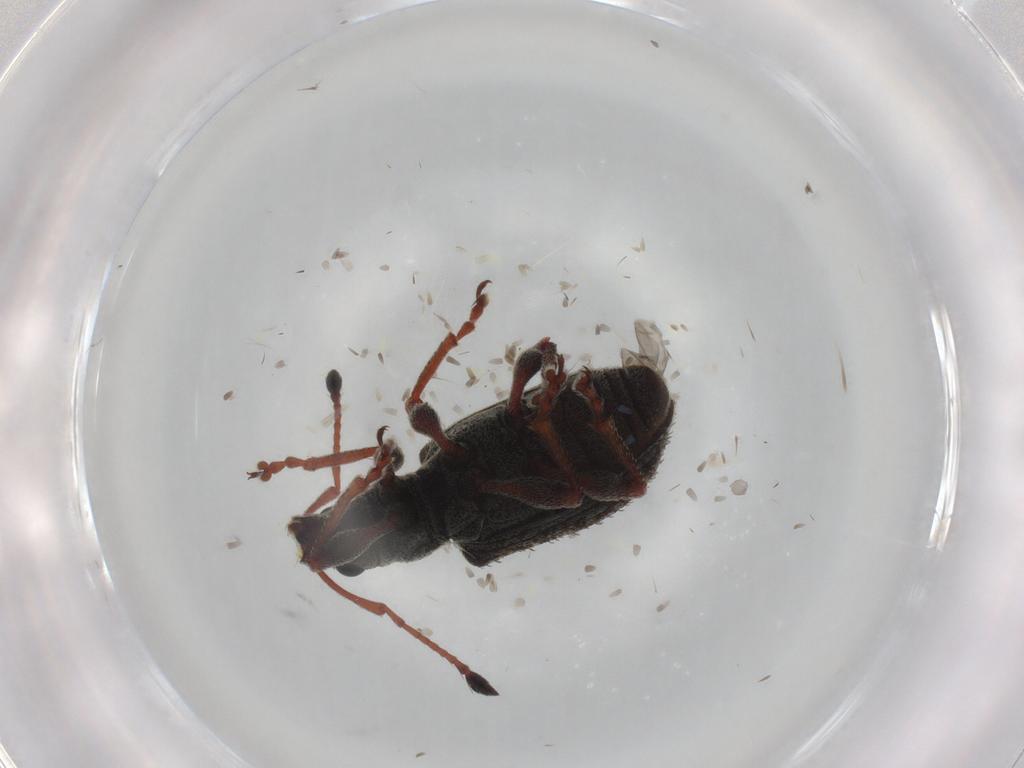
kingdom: Animalia
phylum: Arthropoda
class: Insecta
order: Coleoptera
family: Curculionidae
